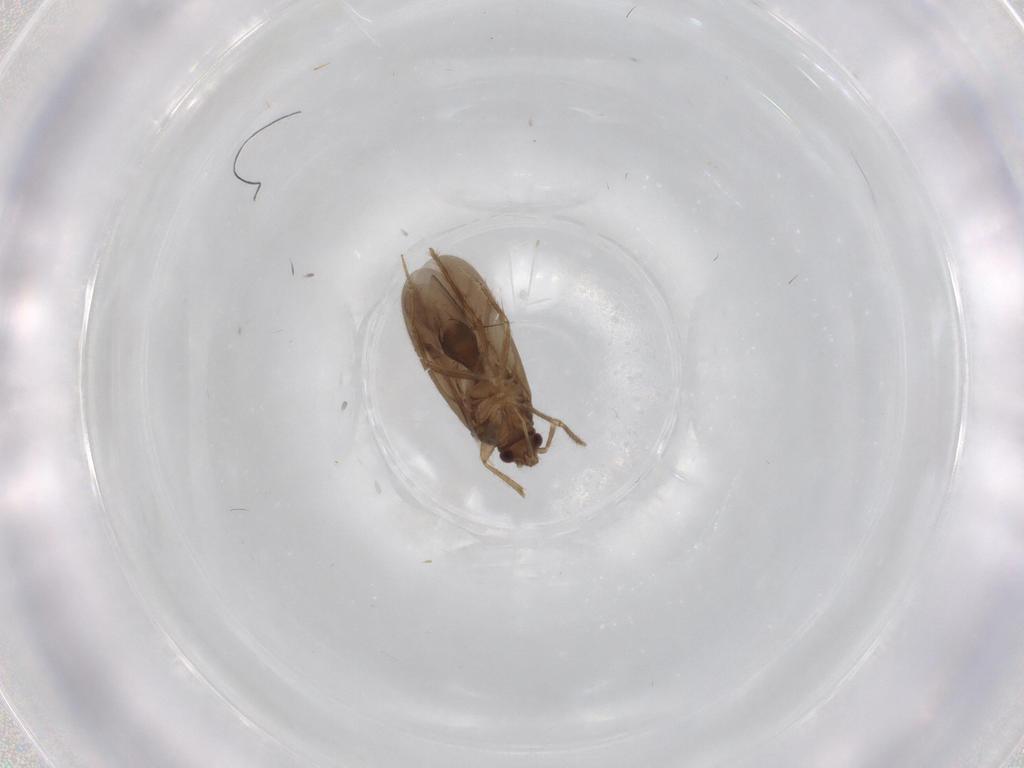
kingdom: Animalia
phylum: Arthropoda
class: Insecta
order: Hemiptera
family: Ceratocombidae
